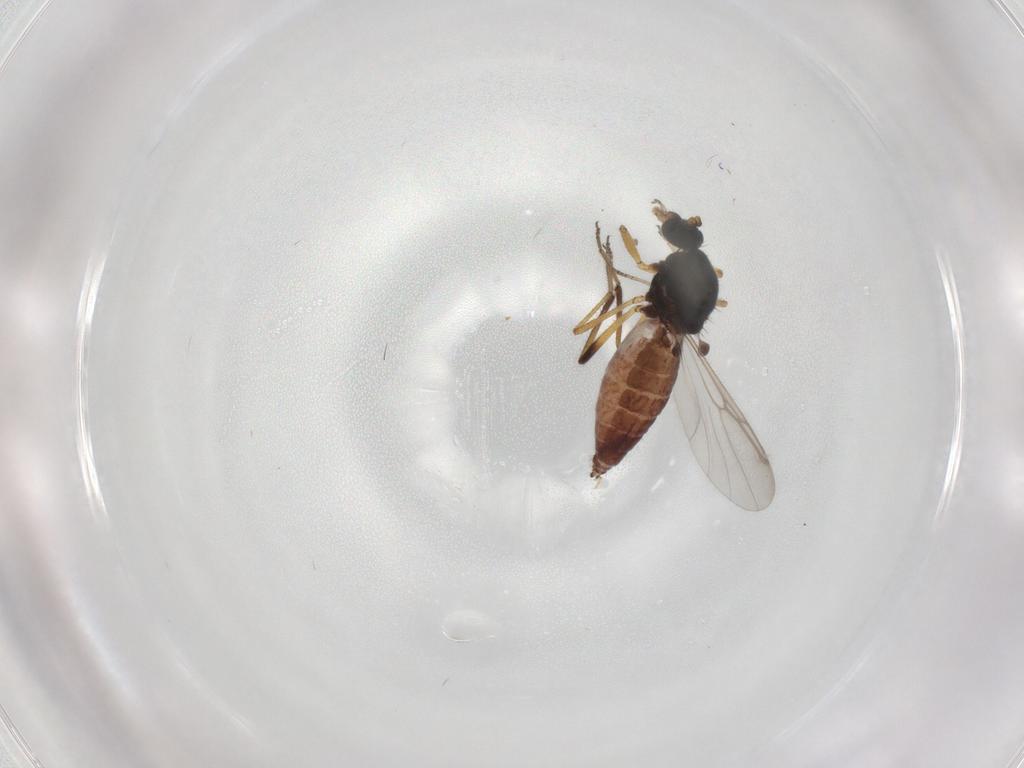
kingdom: Animalia
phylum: Arthropoda
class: Insecta
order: Diptera
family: Ceratopogonidae
